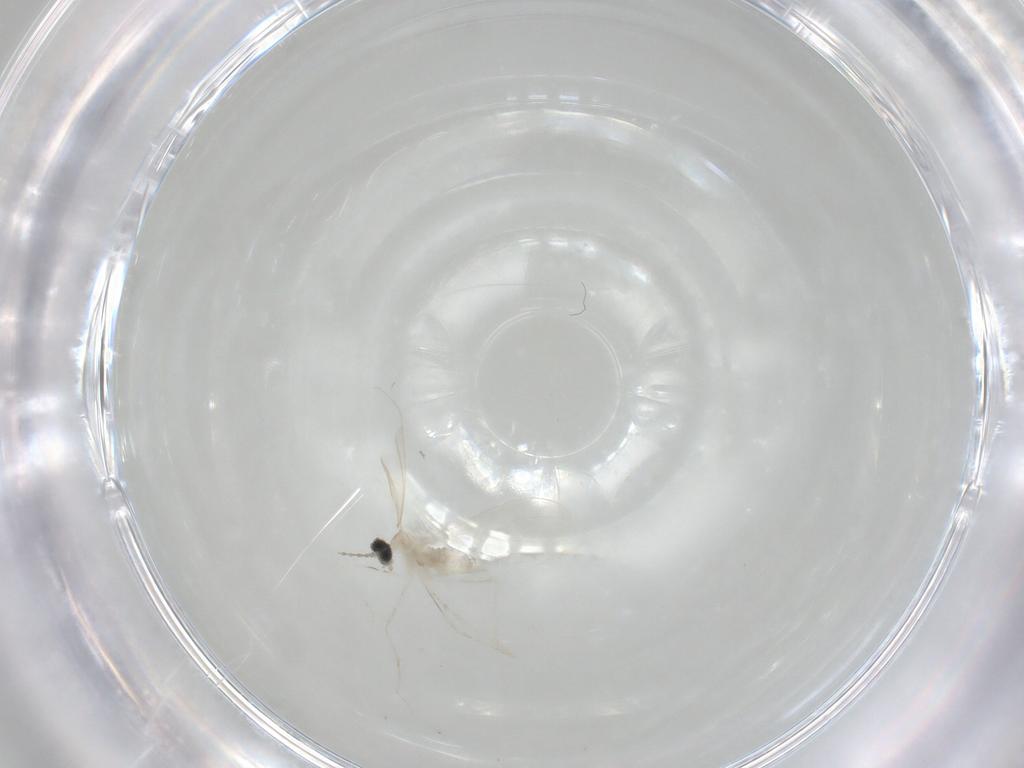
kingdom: Animalia
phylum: Arthropoda
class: Insecta
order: Diptera
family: Cecidomyiidae
